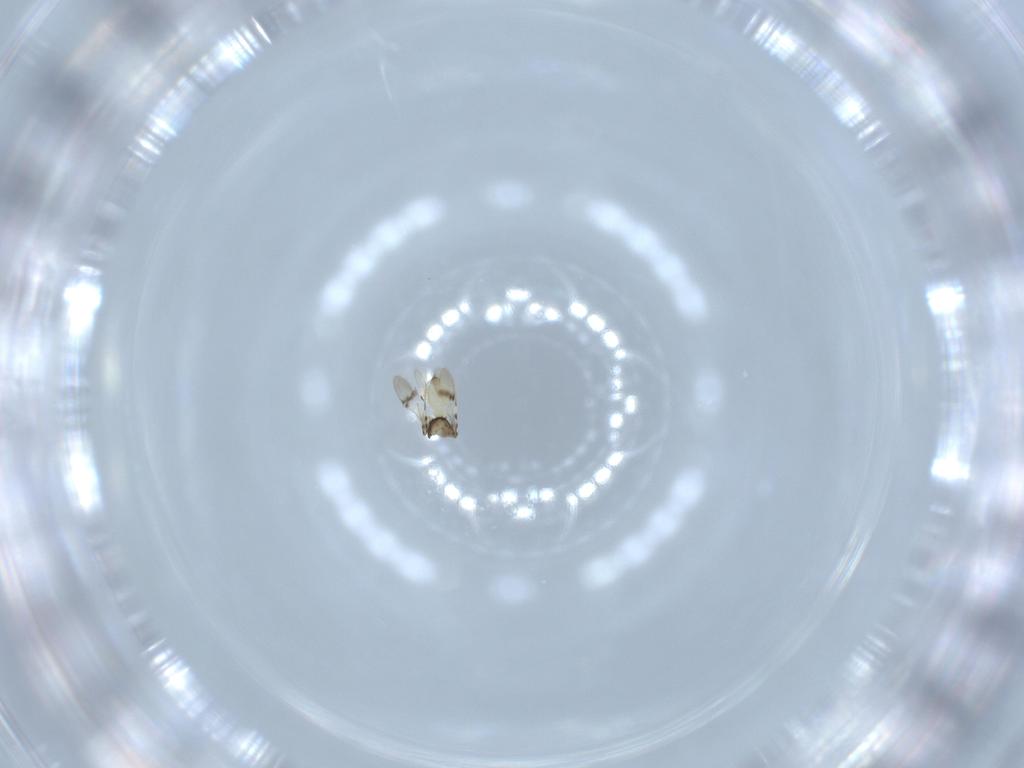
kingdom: Animalia
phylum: Arthropoda
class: Insecta
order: Hymenoptera
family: Scelionidae
